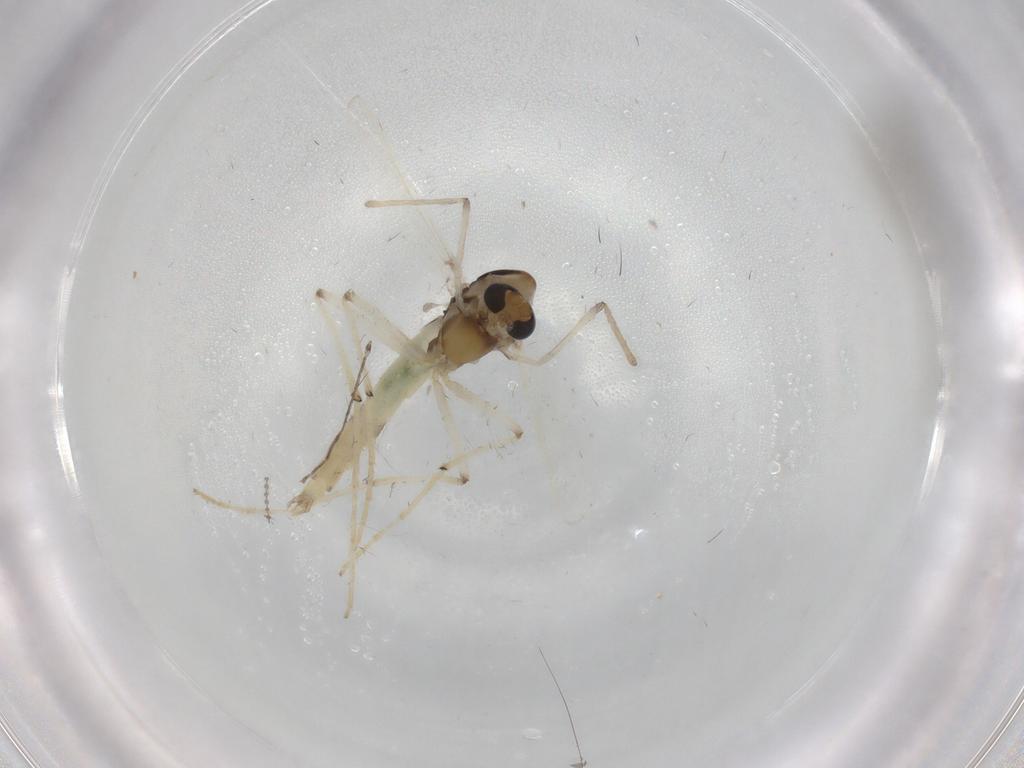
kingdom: Animalia
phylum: Arthropoda
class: Insecta
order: Diptera
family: Chironomidae
